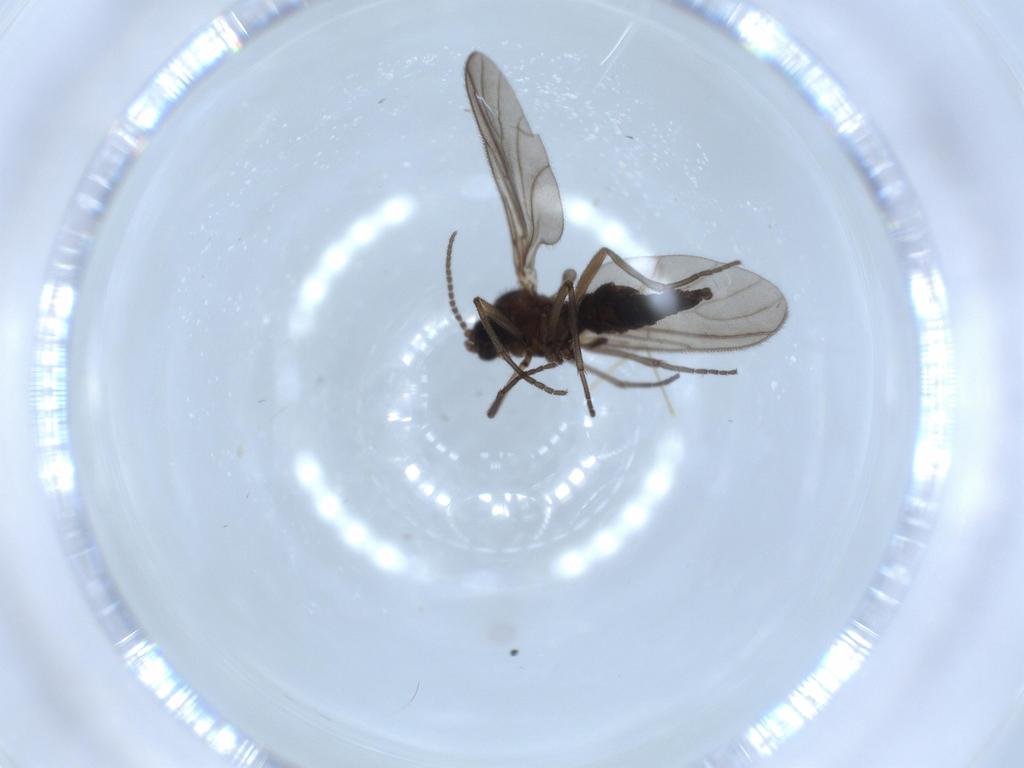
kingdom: Animalia
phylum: Arthropoda
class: Insecta
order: Diptera
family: Sciaridae
